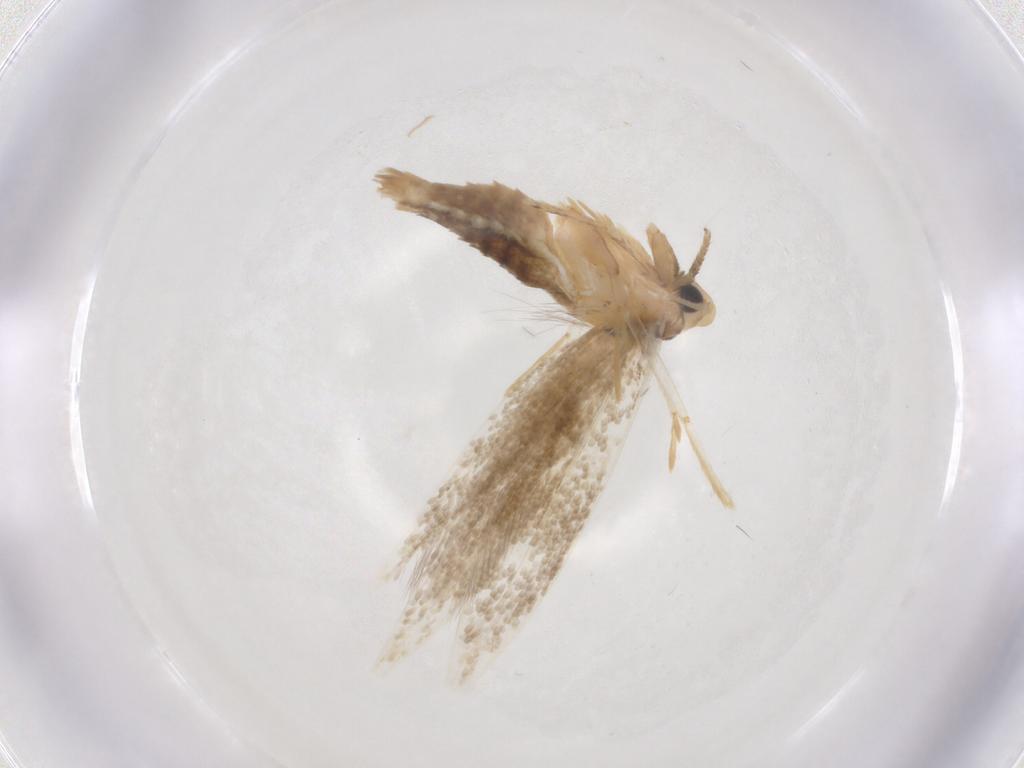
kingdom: Animalia
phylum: Arthropoda
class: Insecta
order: Lepidoptera
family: Tineidae
